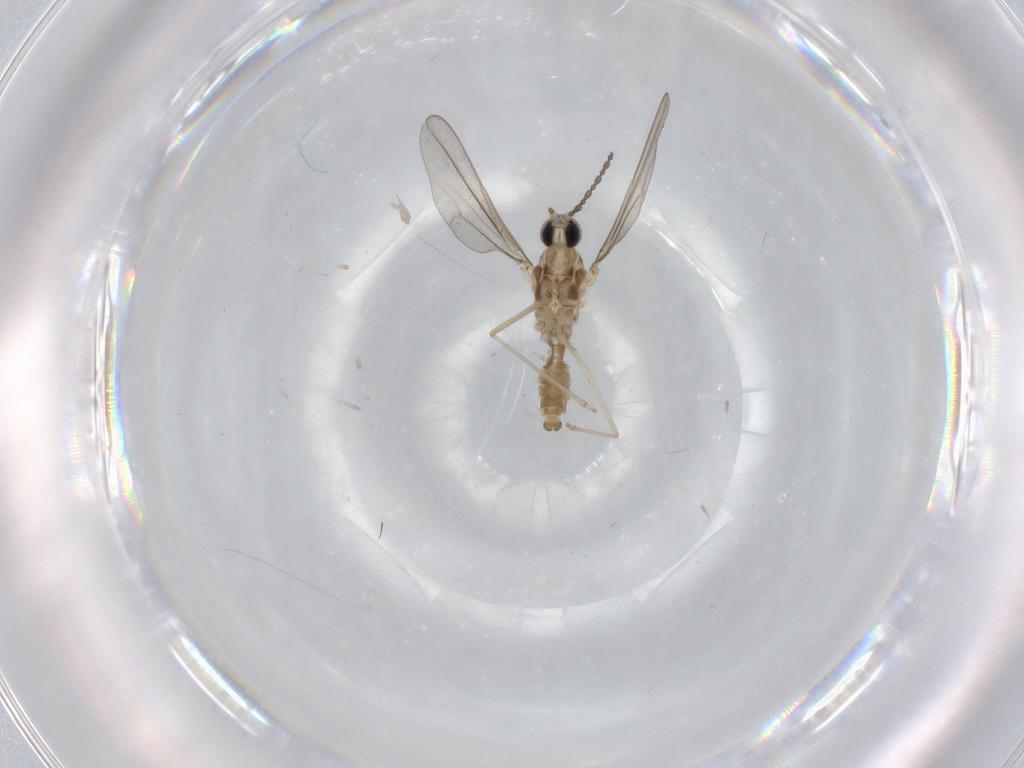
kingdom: Animalia
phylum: Arthropoda
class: Insecta
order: Diptera
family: Cecidomyiidae
